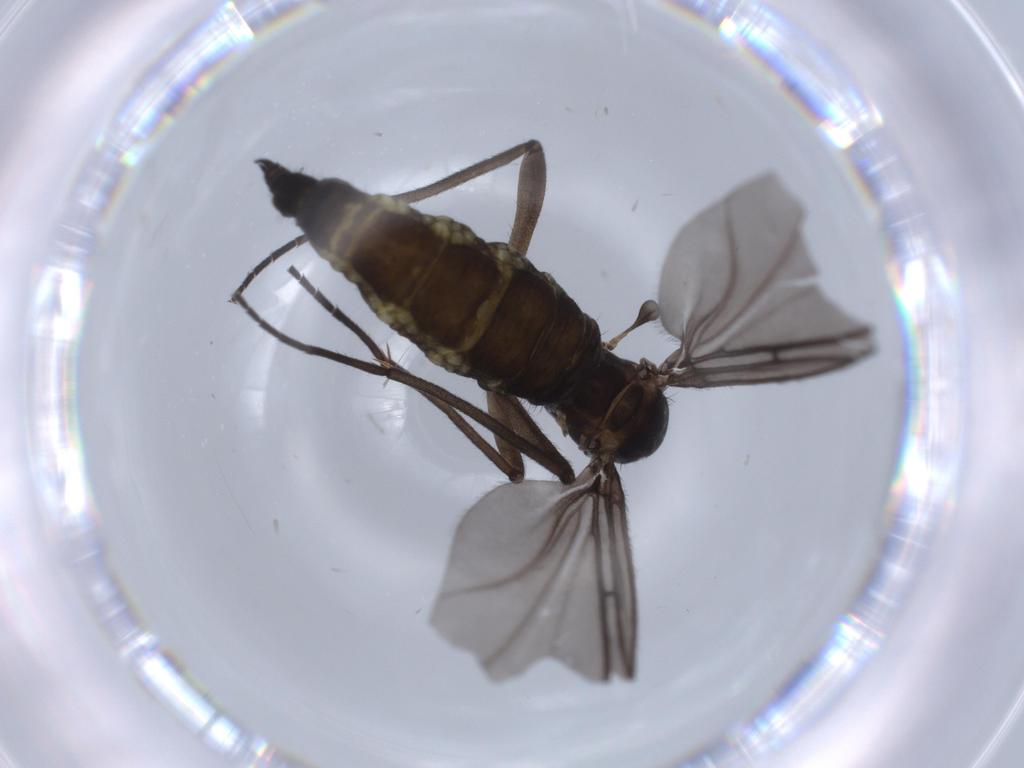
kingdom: Animalia
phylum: Arthropoda
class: Insecta
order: Diptera
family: Sciaridae
